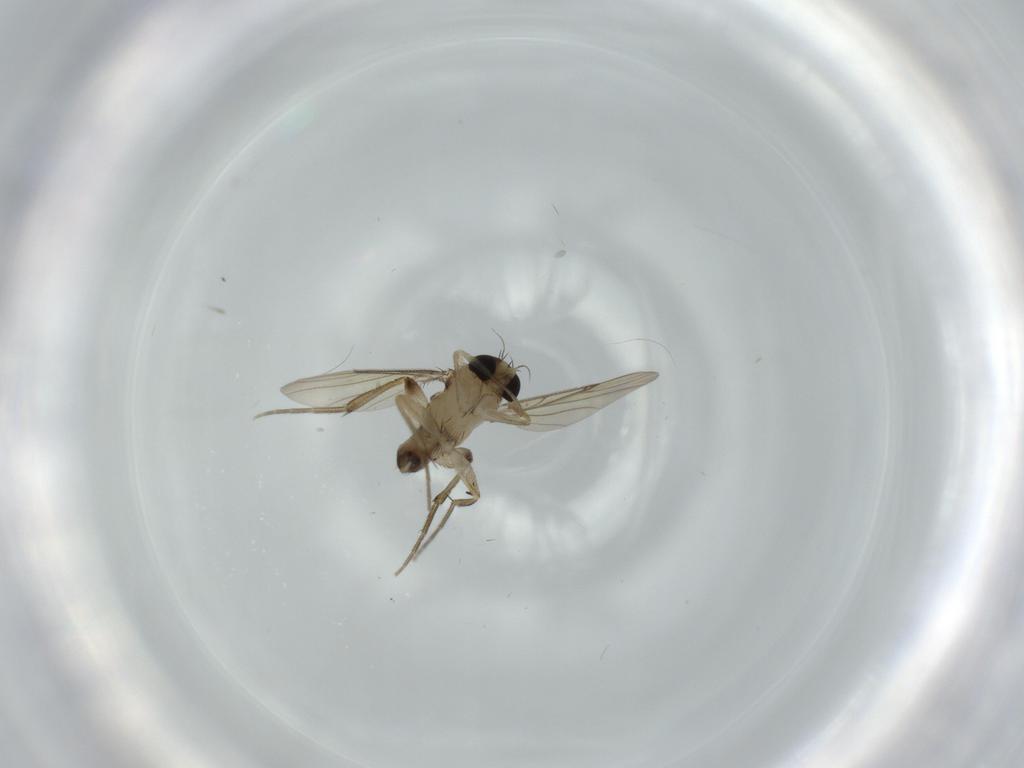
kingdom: Animalia
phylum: Arthropoda
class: Insecta
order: Diptera
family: Phoridae
